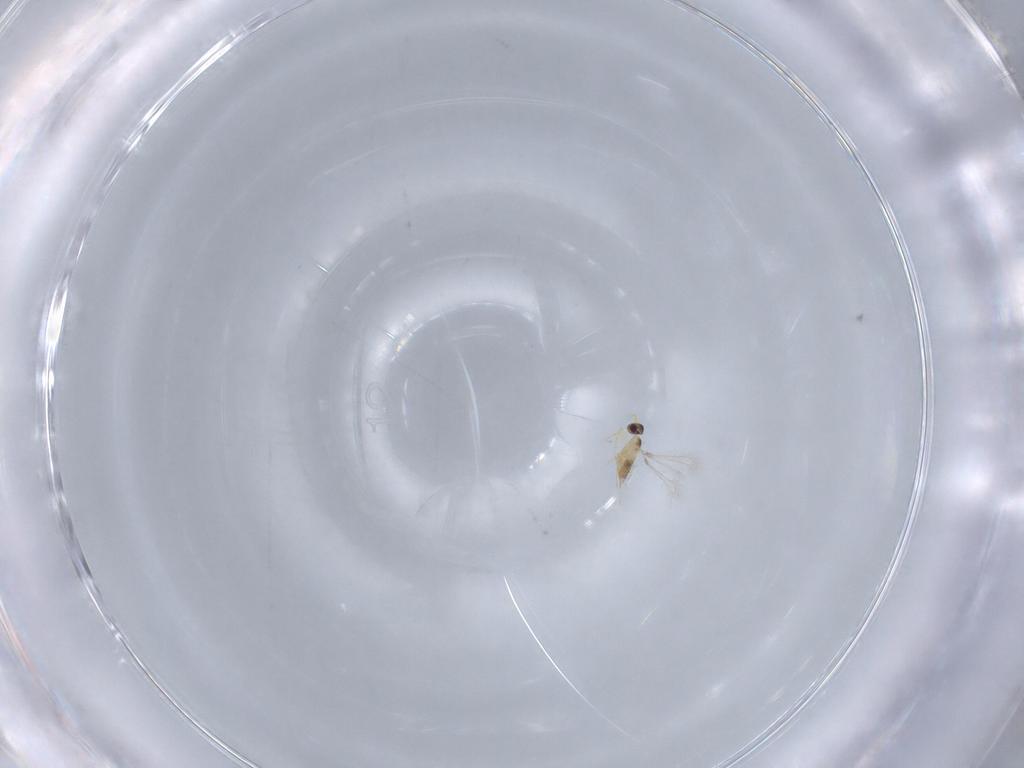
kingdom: Animalia
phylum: Arthropoda
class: Insecta
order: Hymenoptera
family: Mymaridae
